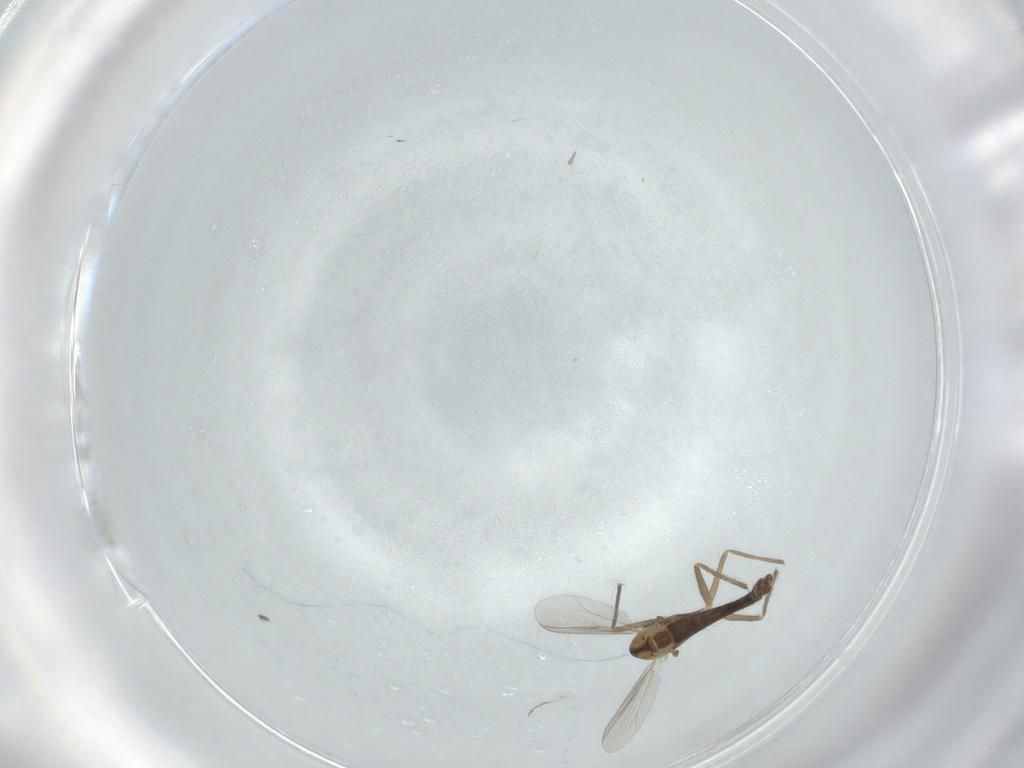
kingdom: Animalia
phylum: Arthropoda
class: Insecta
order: Diptera
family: Chironomidae
